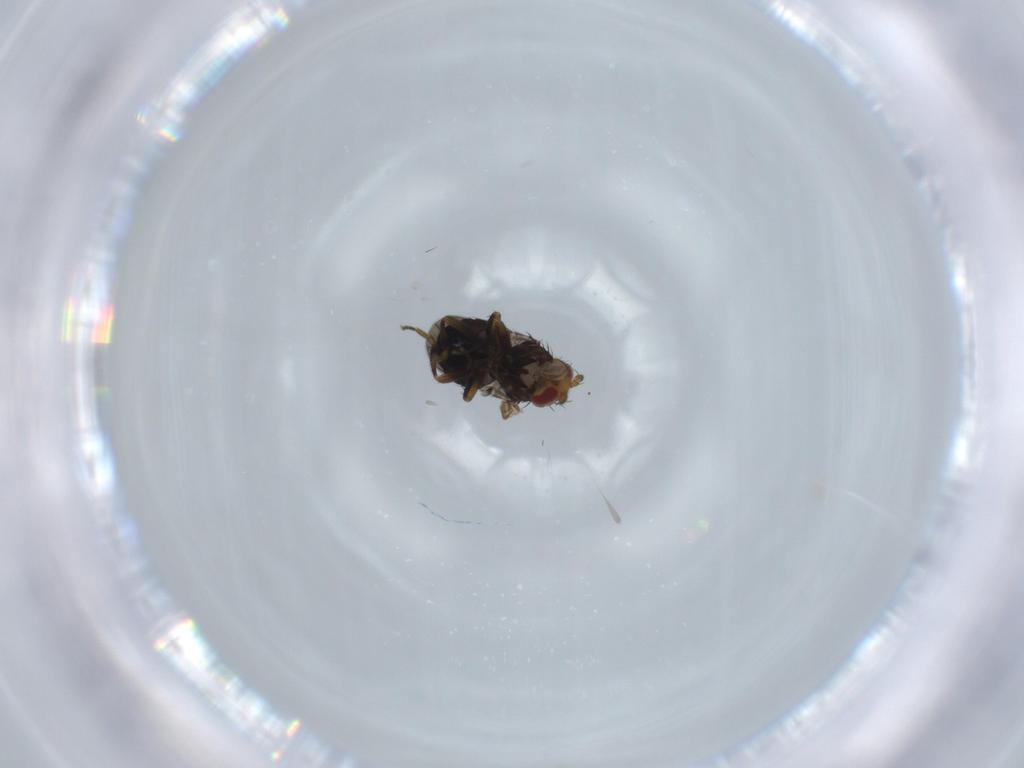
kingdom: Animalia
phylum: Arthropoda
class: Insecta
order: Diptera
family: Sphaeroceridae
